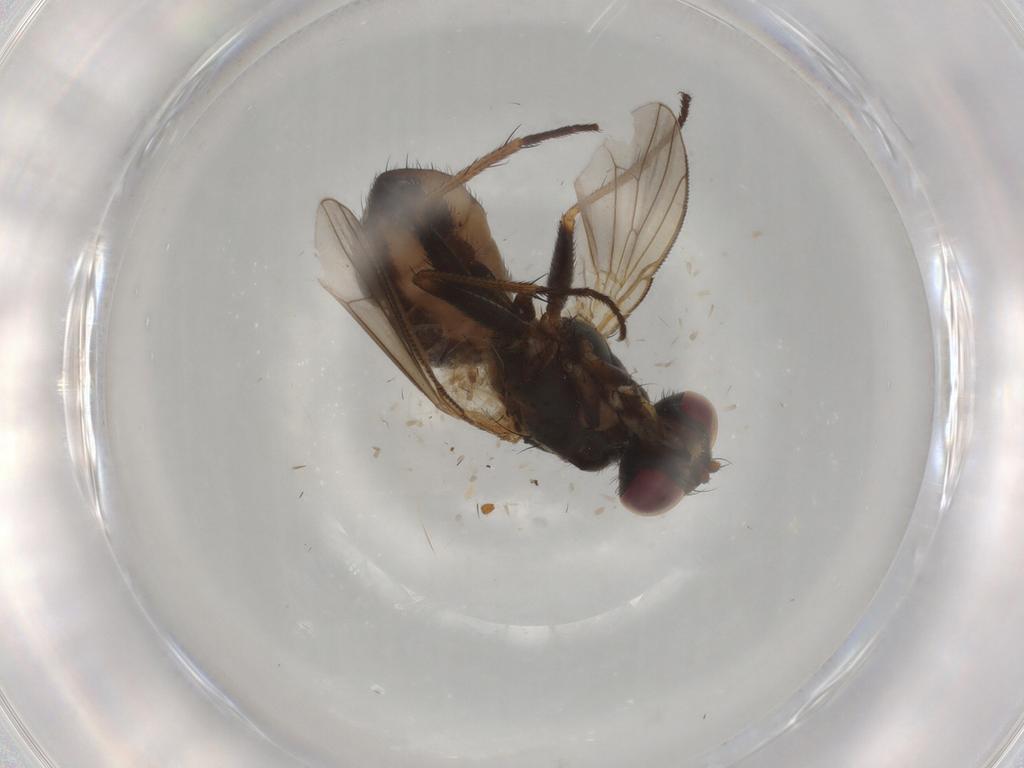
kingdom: Animalia
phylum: Arthropoda
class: Insecta
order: Diptera
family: Muscidae
